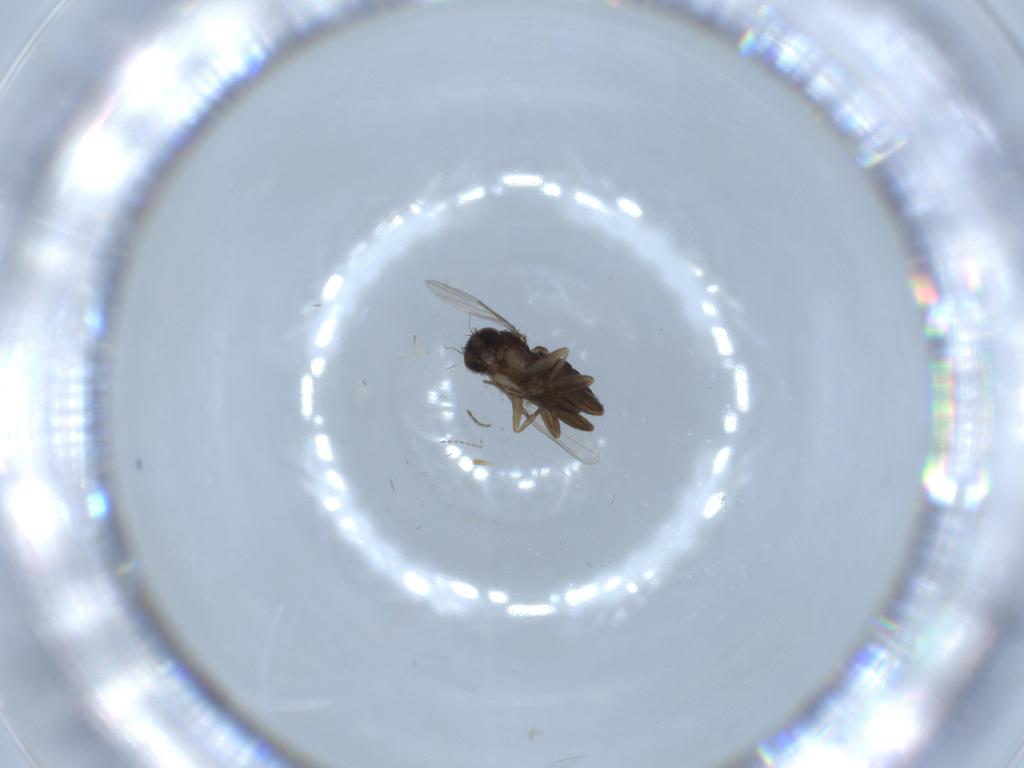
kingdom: Animalia
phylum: Arthropoda
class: Insecta
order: Diptera
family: Phoridae
